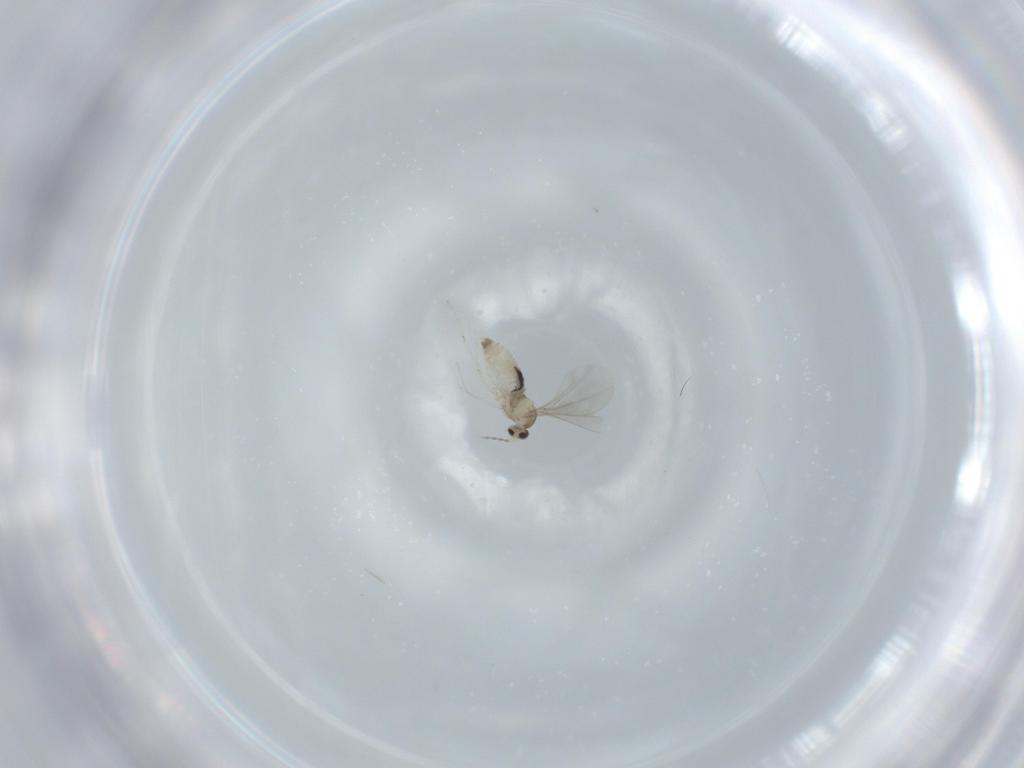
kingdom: Animalia
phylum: Arthropoda
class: Insecta
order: Diptera
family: Cecidomyiidae
